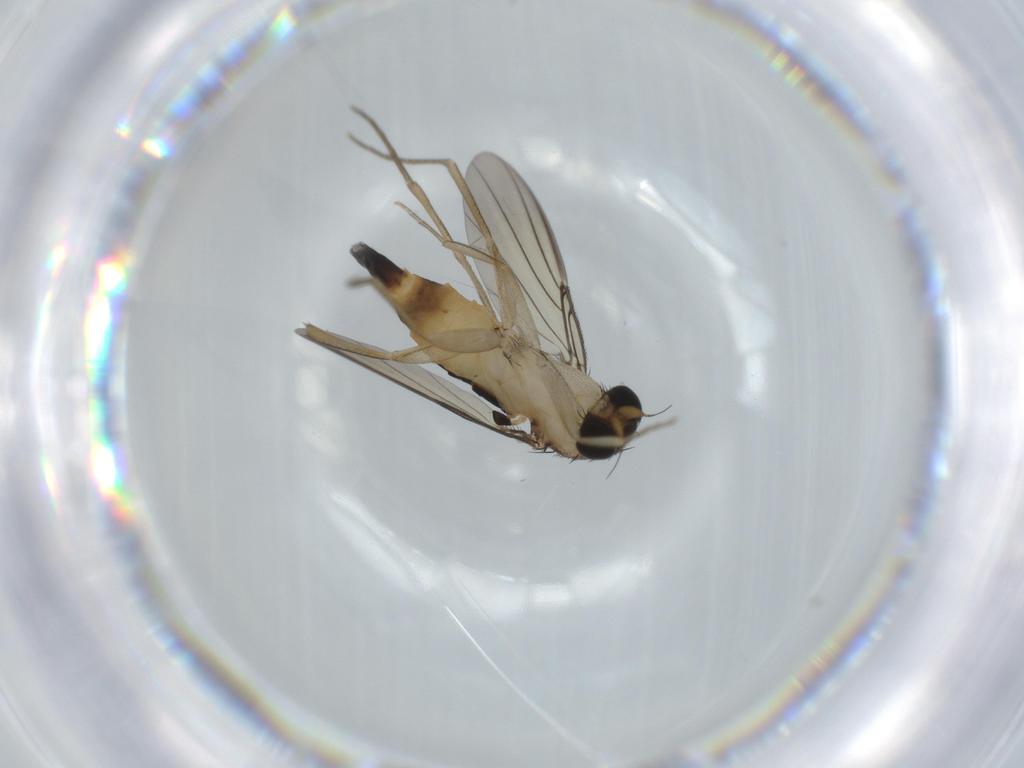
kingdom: Animalia
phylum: Arthropoda
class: Insecta
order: Diptera
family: Phoridae
